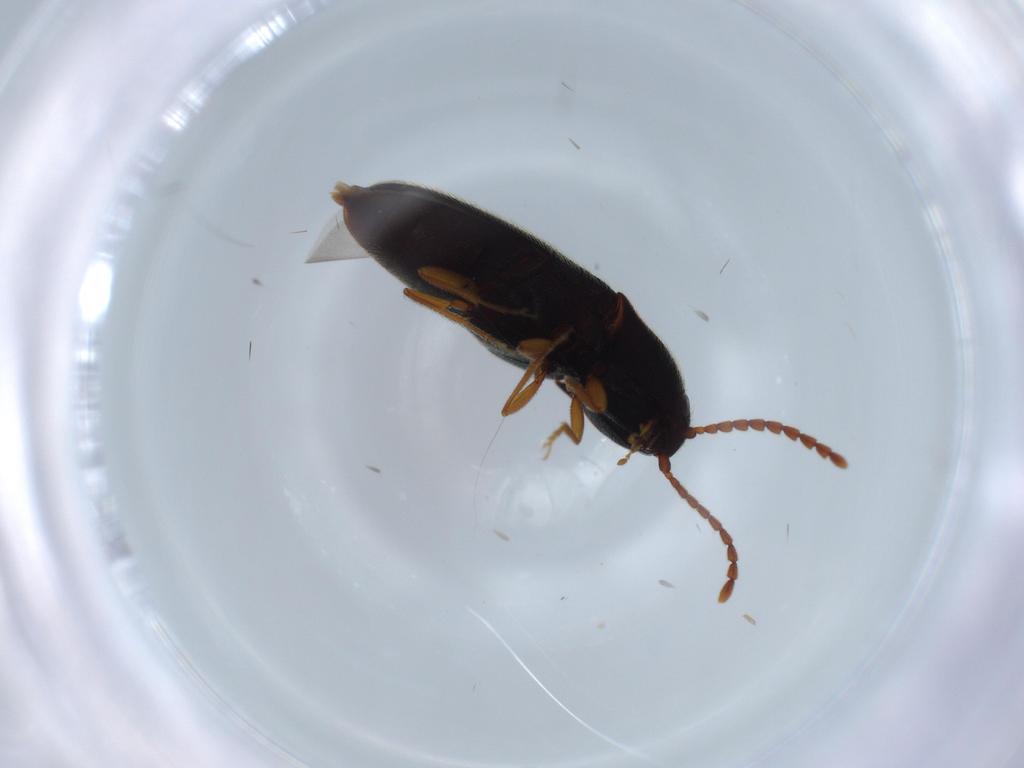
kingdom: Animalia
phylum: Arthropoda
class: Insecta
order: Coleoptera
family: Elateridae
